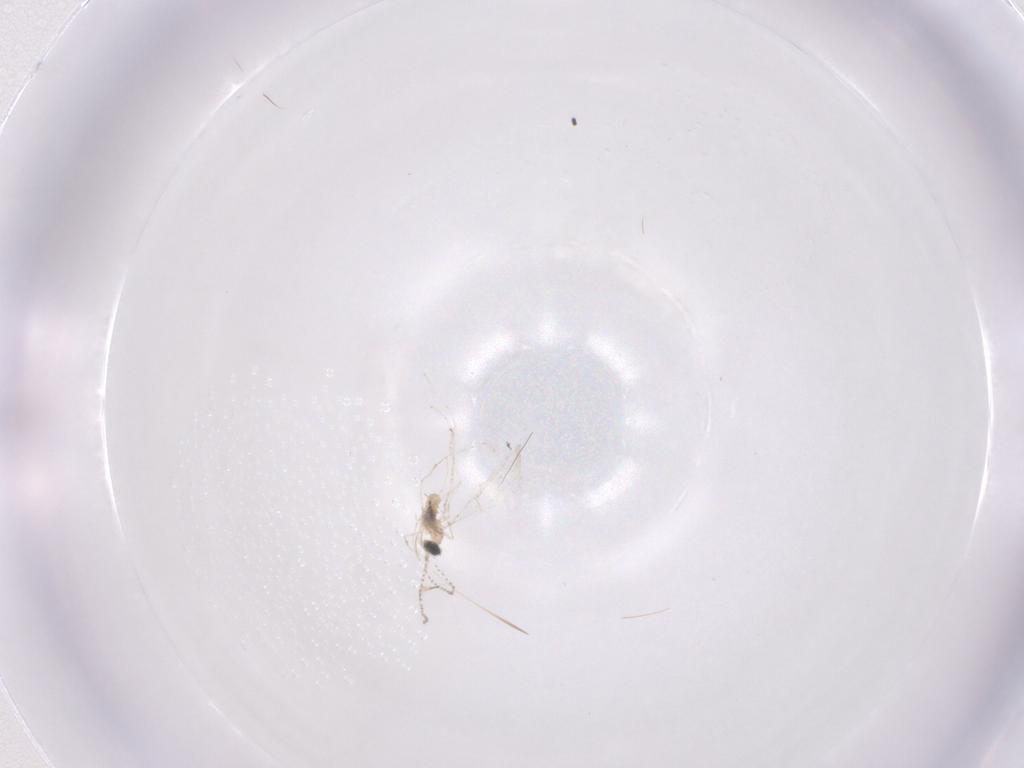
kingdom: Animalia
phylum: Arthropoda
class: Insecta
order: Diptera
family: Cecidomyiidae
